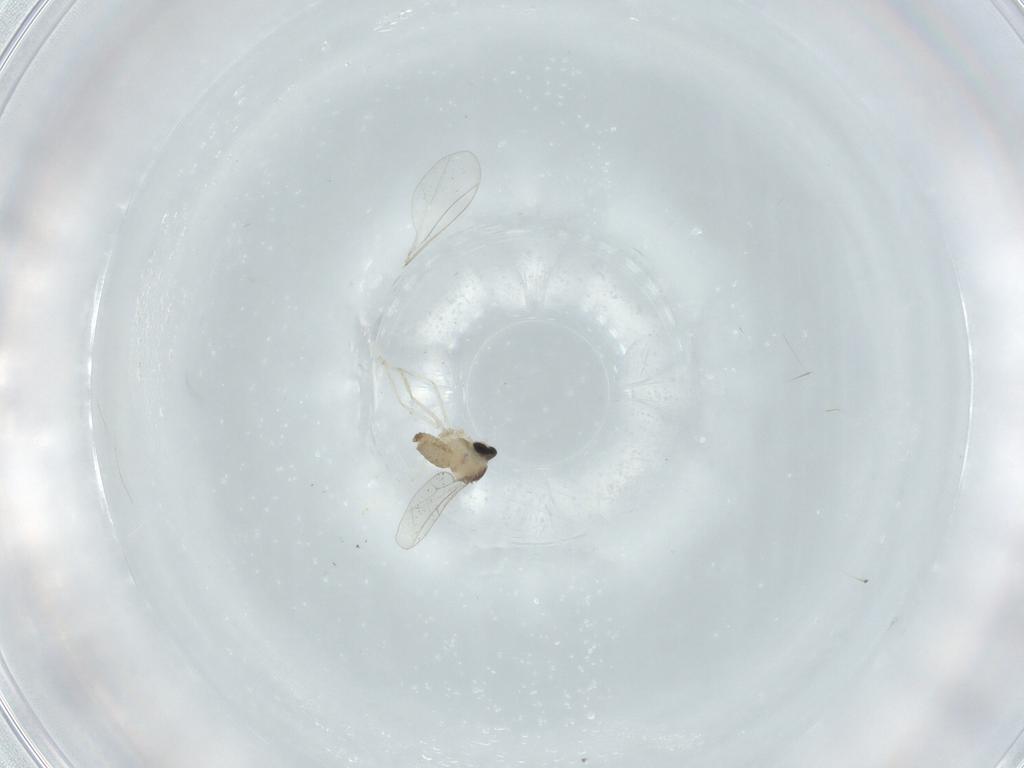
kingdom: Animalia
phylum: Arthropoda
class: Insecta
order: Diptera
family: Cecidomyiidae
